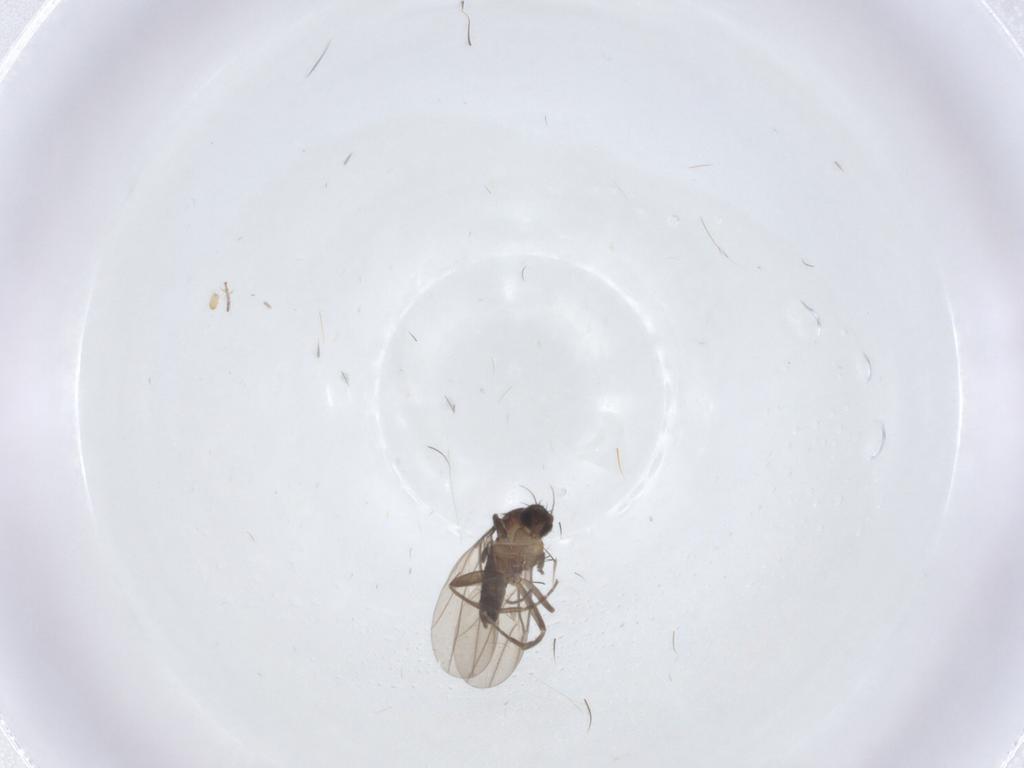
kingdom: Animalia
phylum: Arthropoda
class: Insecta
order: Diptera
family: Phoridae
